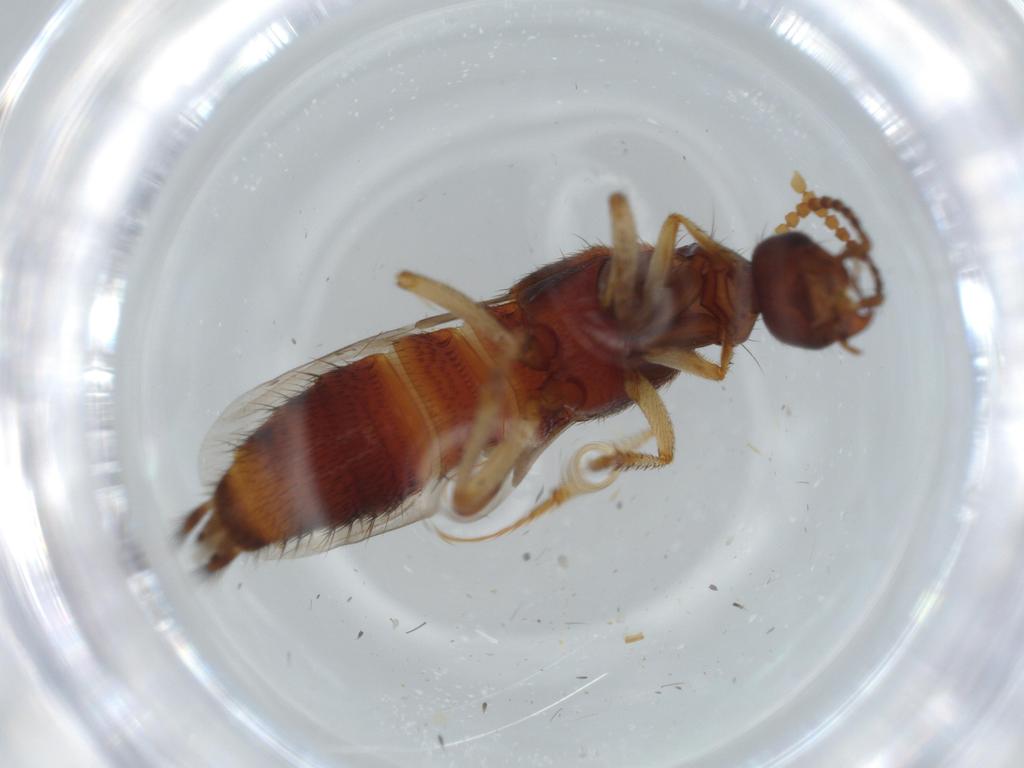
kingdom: Animalia
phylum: Arthropoda
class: Insecta
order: Coleoptera
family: Staphylinidae
